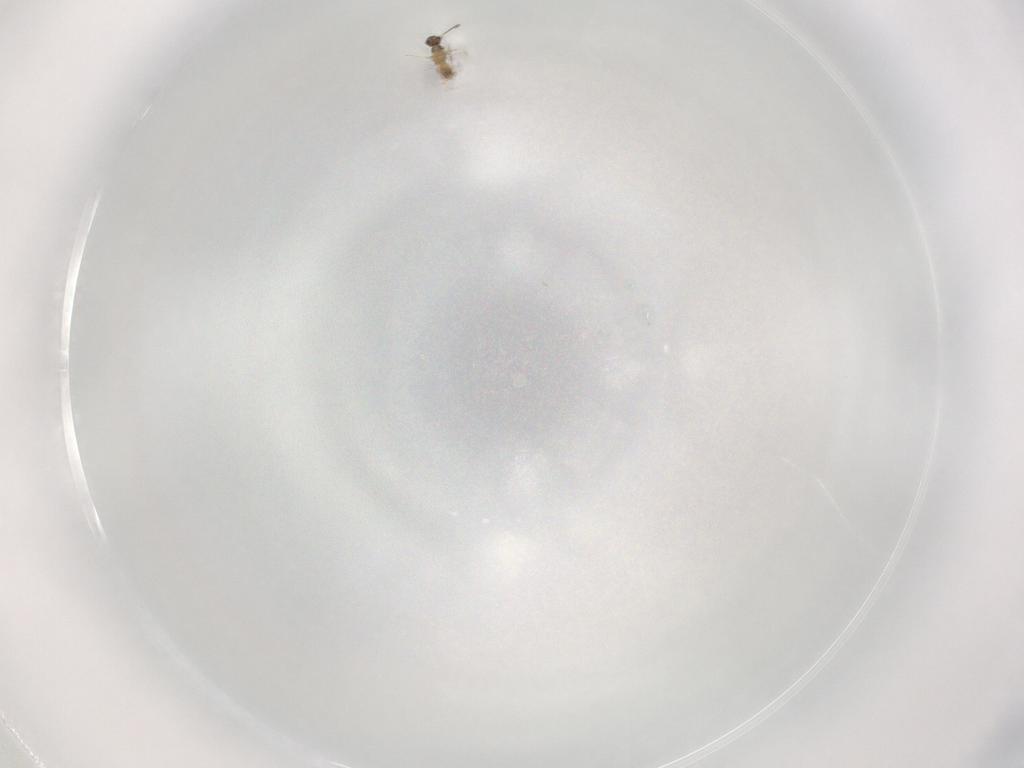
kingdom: Animalia
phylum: Arthropoda
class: Insecta
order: Hymenoptera
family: Mymaridae
